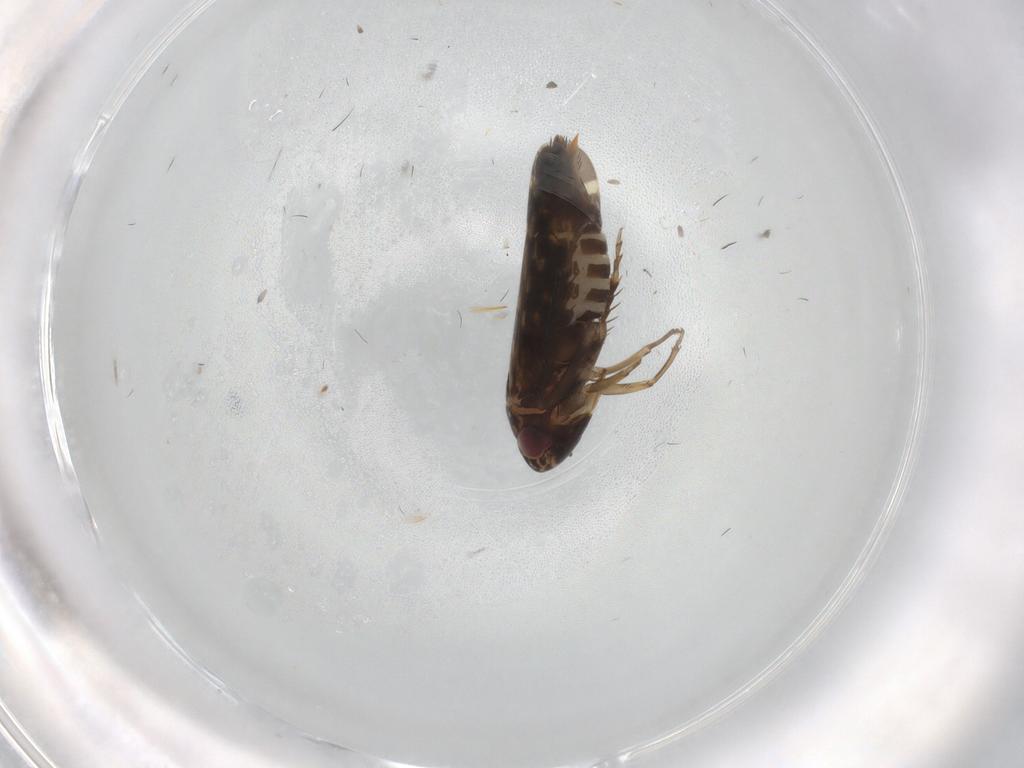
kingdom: Animalia
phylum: Arthropoda
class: Insecta
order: Hemiptera
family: Cicadellidae
